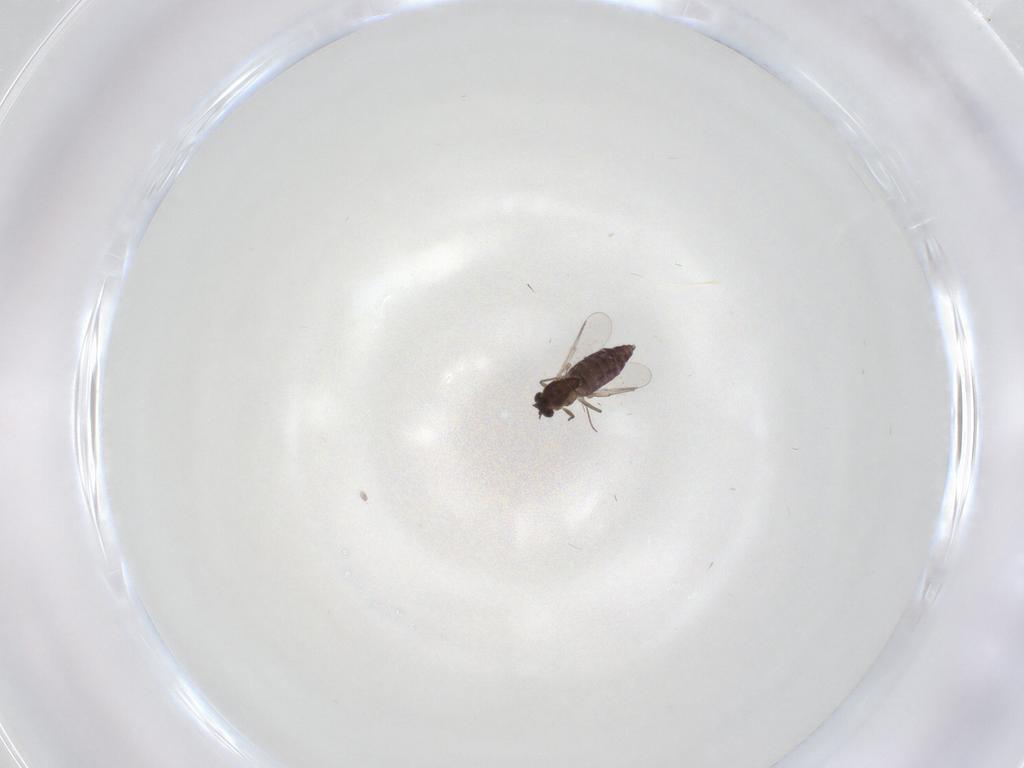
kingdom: Animalia
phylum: Arthropoda
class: Insecta
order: Diptera
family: Chironomidae
